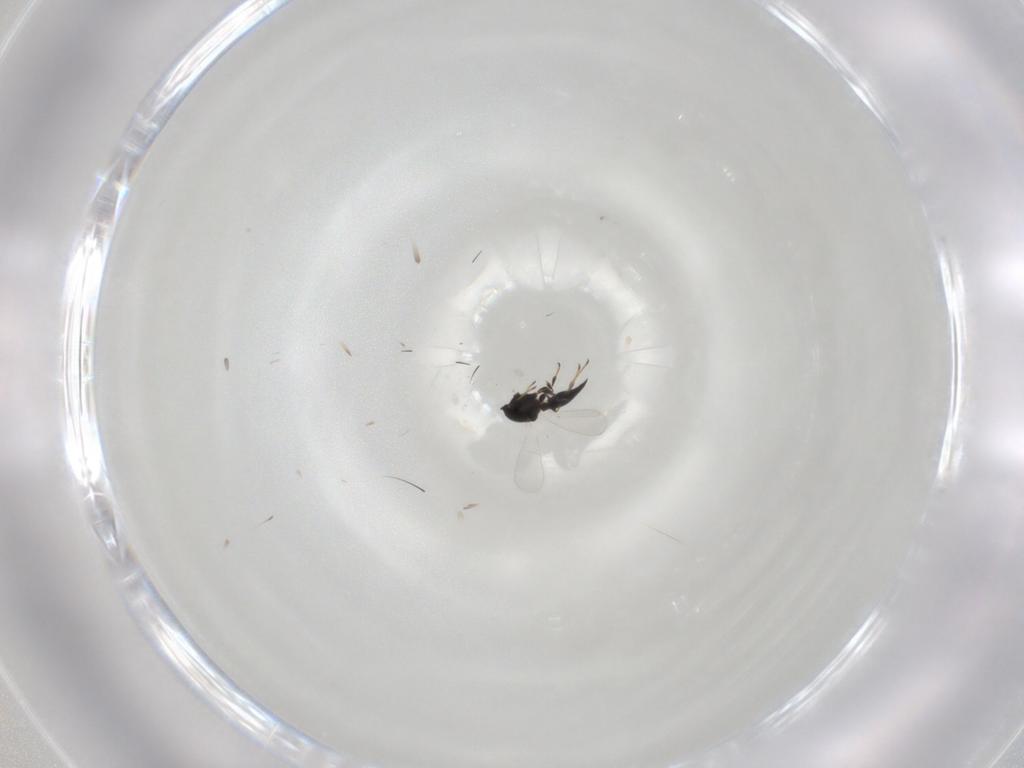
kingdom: Animalia
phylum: Arthropoda
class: Insecta
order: Hymenoptera
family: Platygastridae
